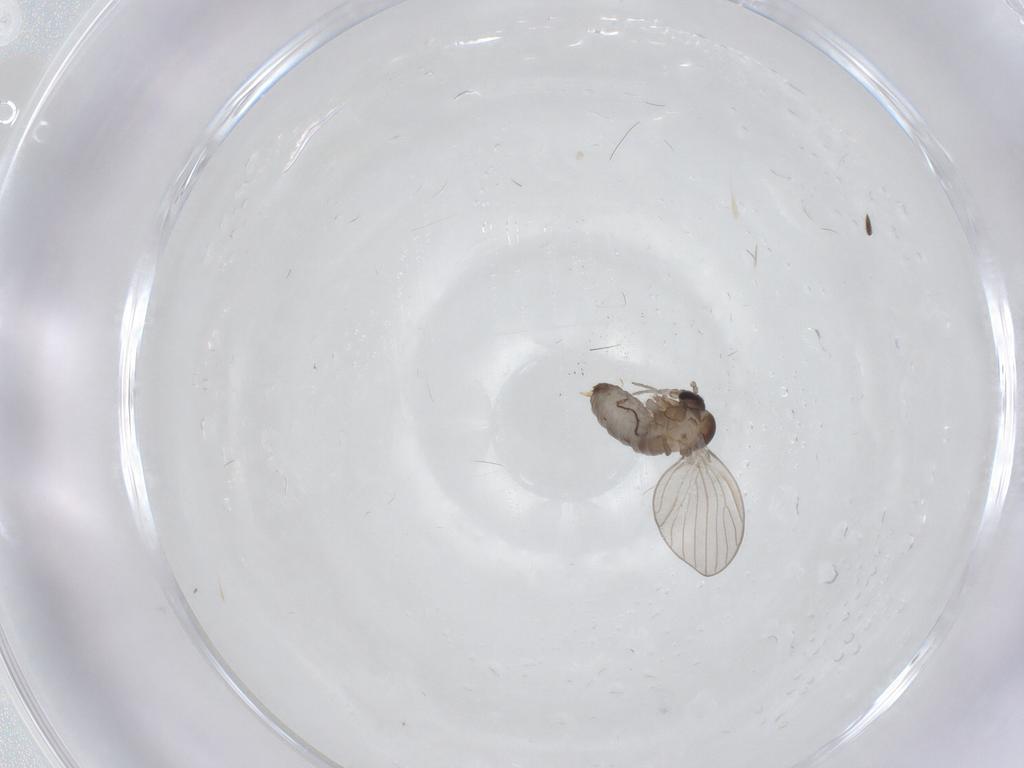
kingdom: Animalia
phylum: Arthropoda
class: Insecta
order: Diptera
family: Psychodidae
